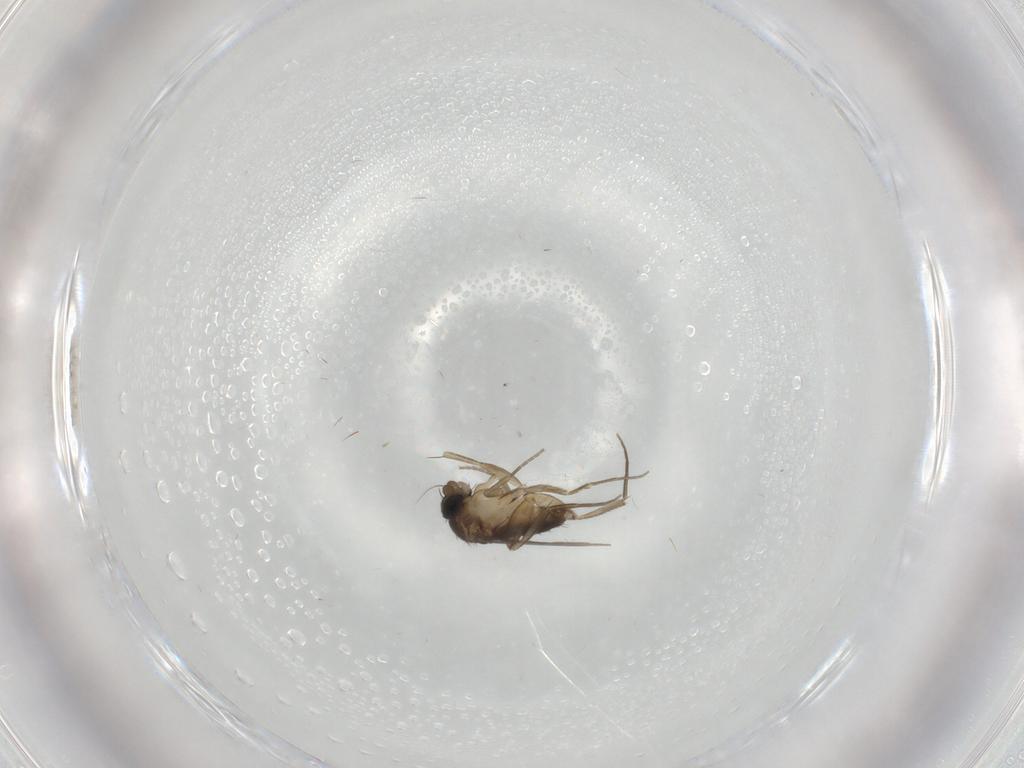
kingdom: Animalia
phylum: Arthropoda
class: Insecta
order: Diptera
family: Phoridae
